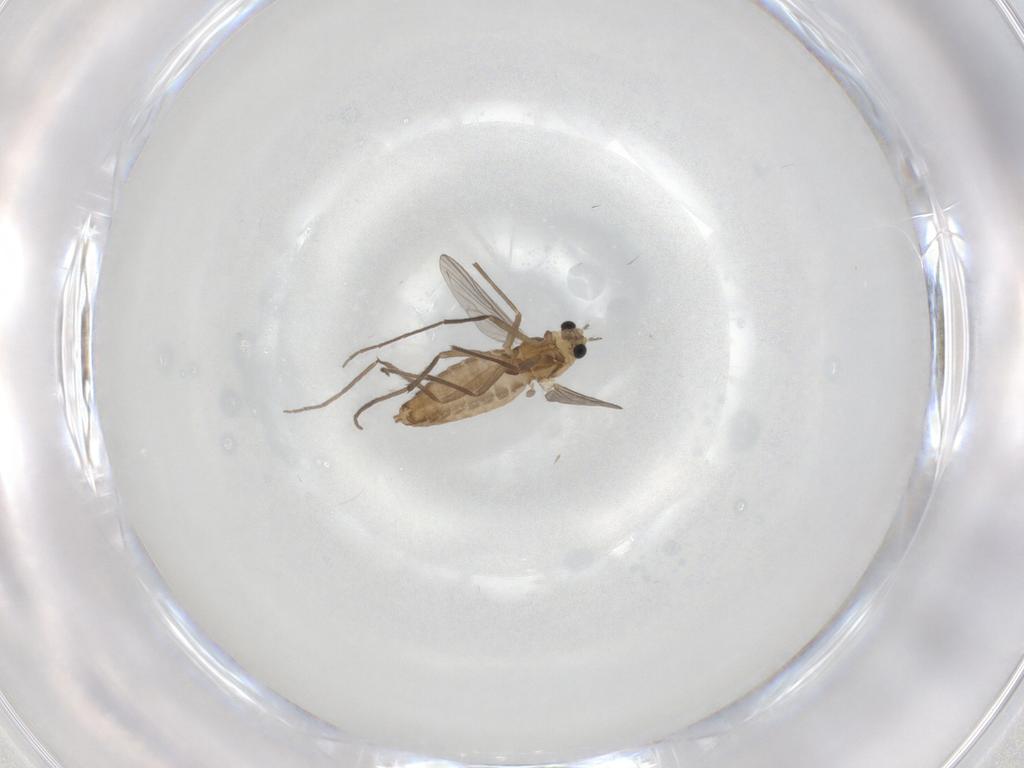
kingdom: Animalia
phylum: Arthropoda
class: Insecta
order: Diptera
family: Chironomidae
